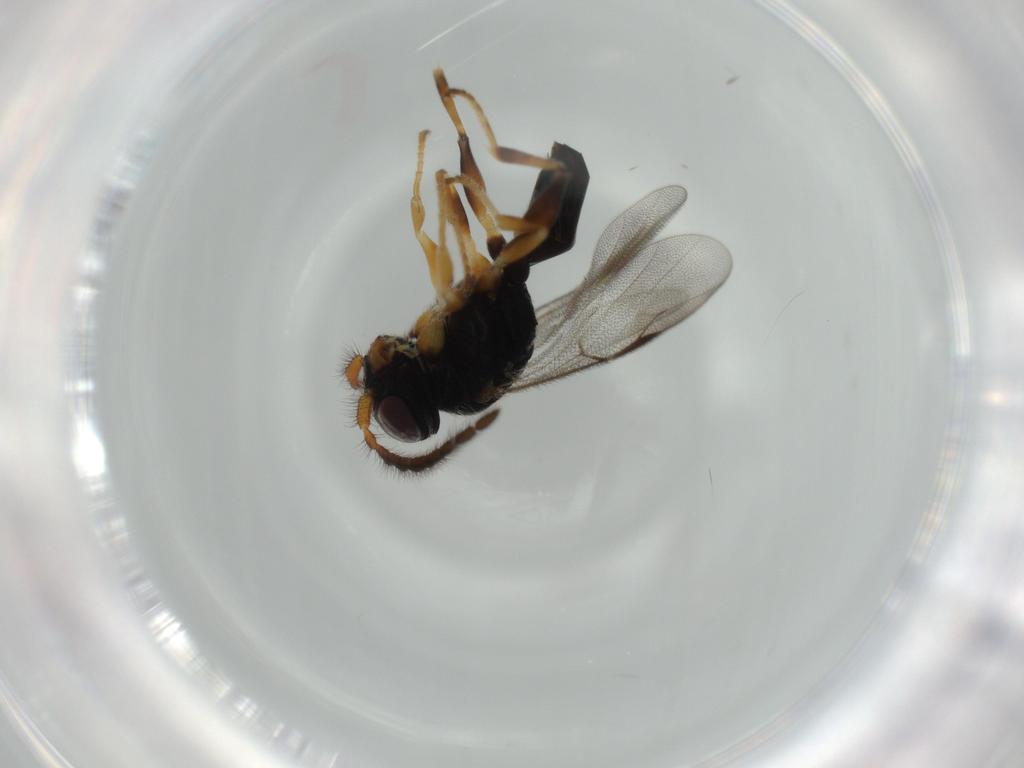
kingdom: Animalia
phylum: Arthropoda
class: Insecta
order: Hymenoptera
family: Dryinidae
